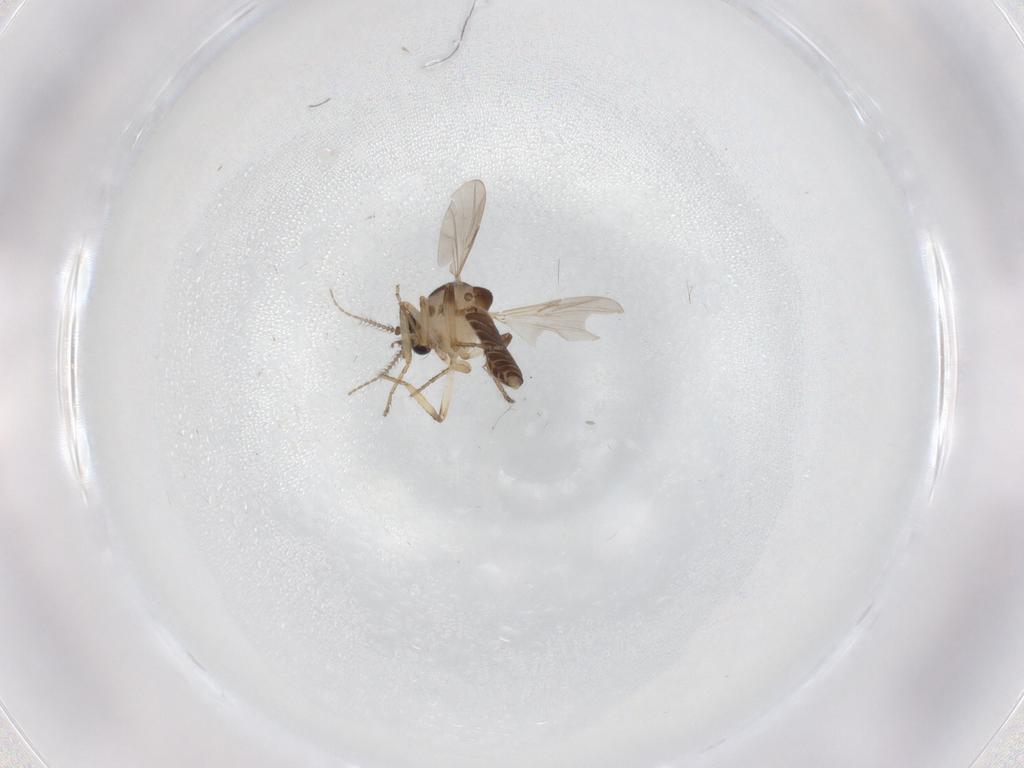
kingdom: Animalia
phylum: Arthropoda
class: Insecta
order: Diptera
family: Ceratopogonidae
